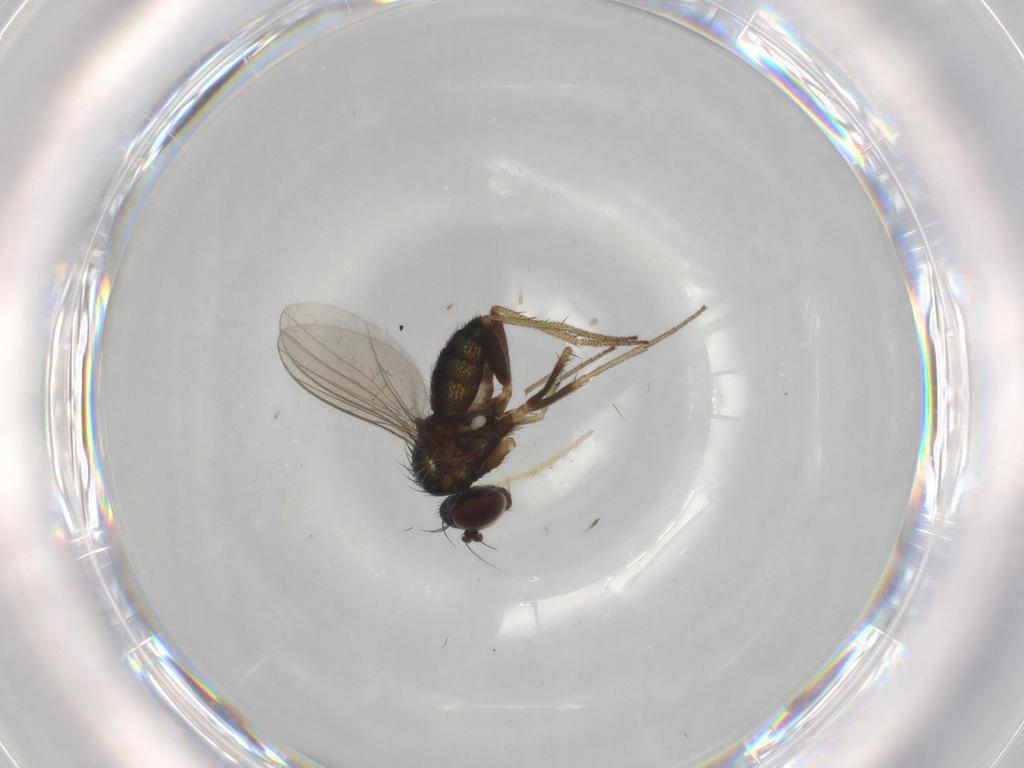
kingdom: Animalia
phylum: Arthropoda
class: Insecta
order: Diptera
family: Chironomidae
